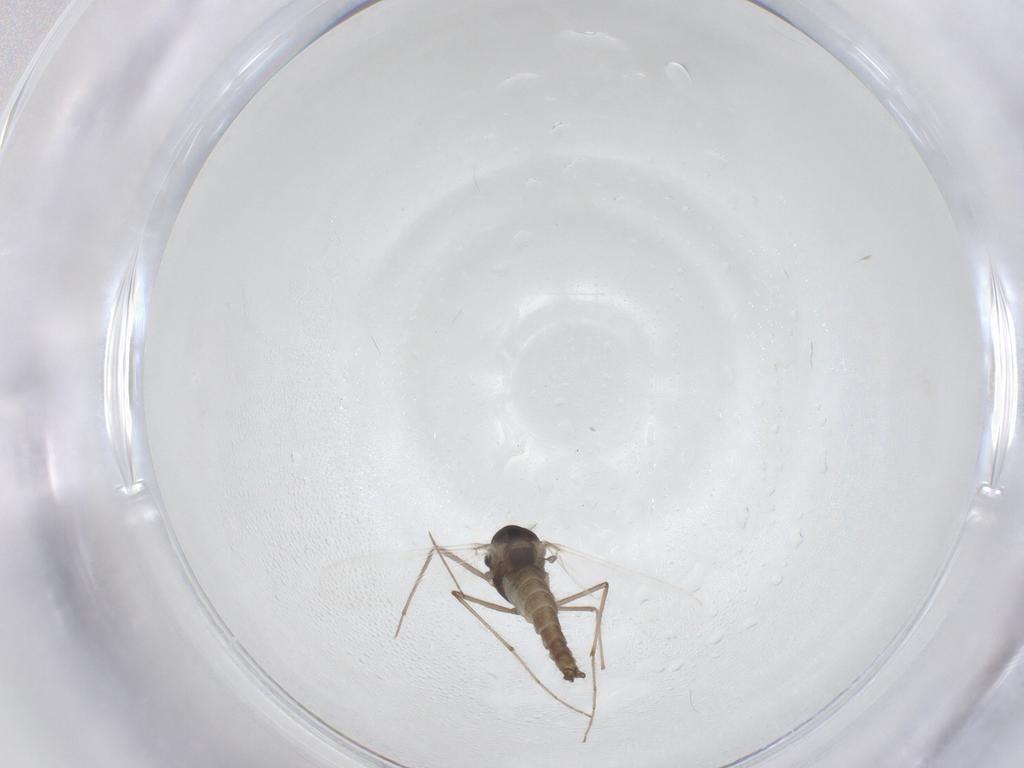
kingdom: Animalia
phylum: Arthropoda
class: Insecta
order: Diptera
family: Chironomidae
